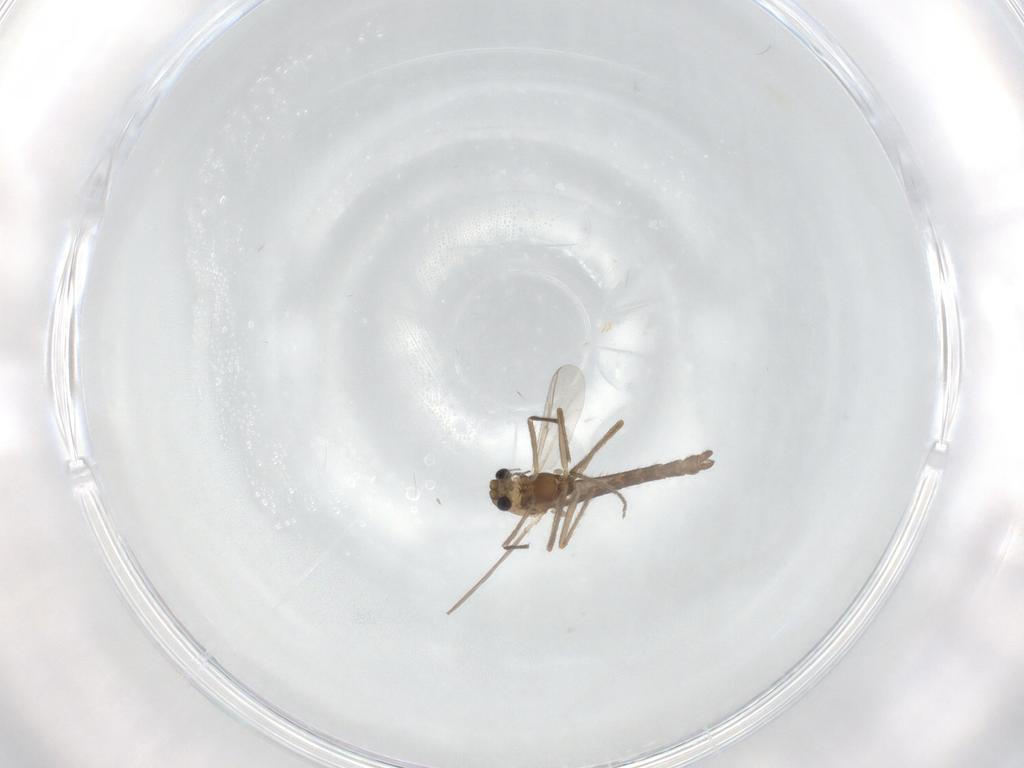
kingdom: Animalia
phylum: Arthropoda
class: Insecta
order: Diptera
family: Chironomidae
